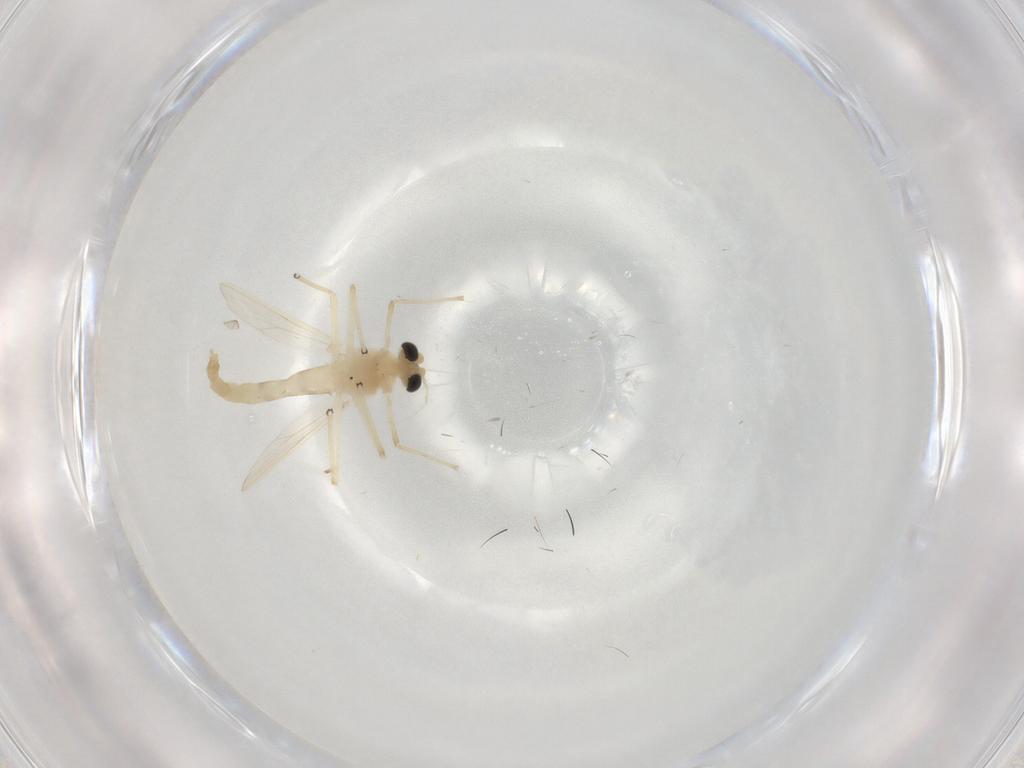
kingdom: Animalia
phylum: Arthropoda
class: Insecta
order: Diptera
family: Chironomidae
